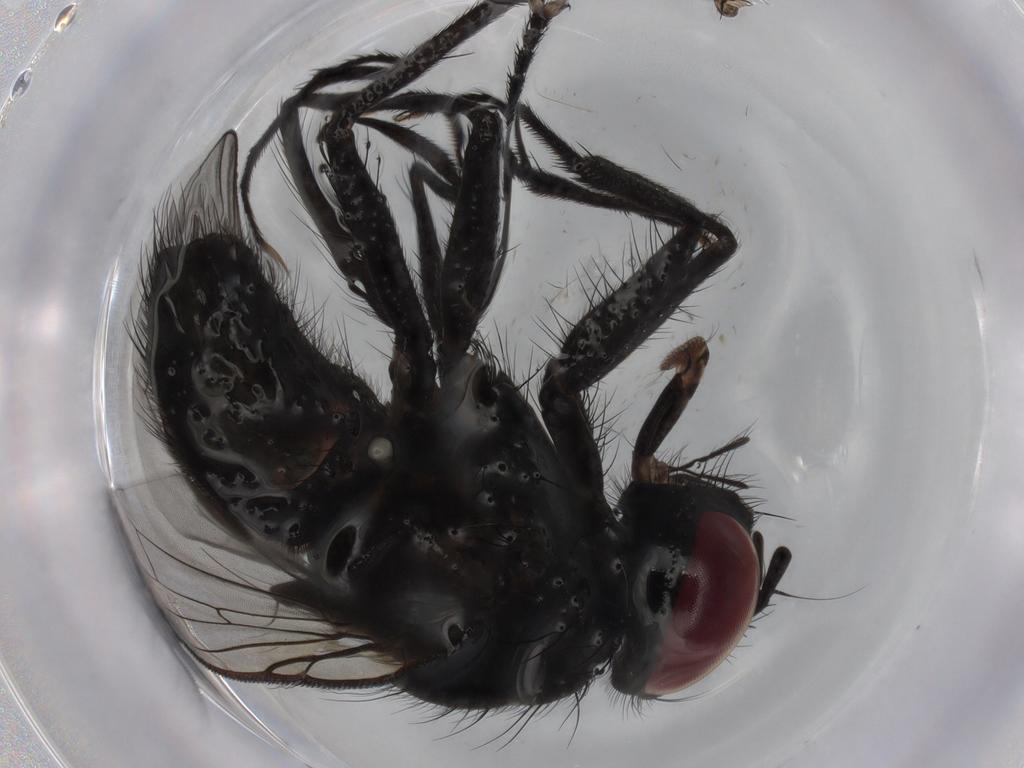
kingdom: Animalia
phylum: Arthropoda
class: Insecta
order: Diptera
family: Muscidae
